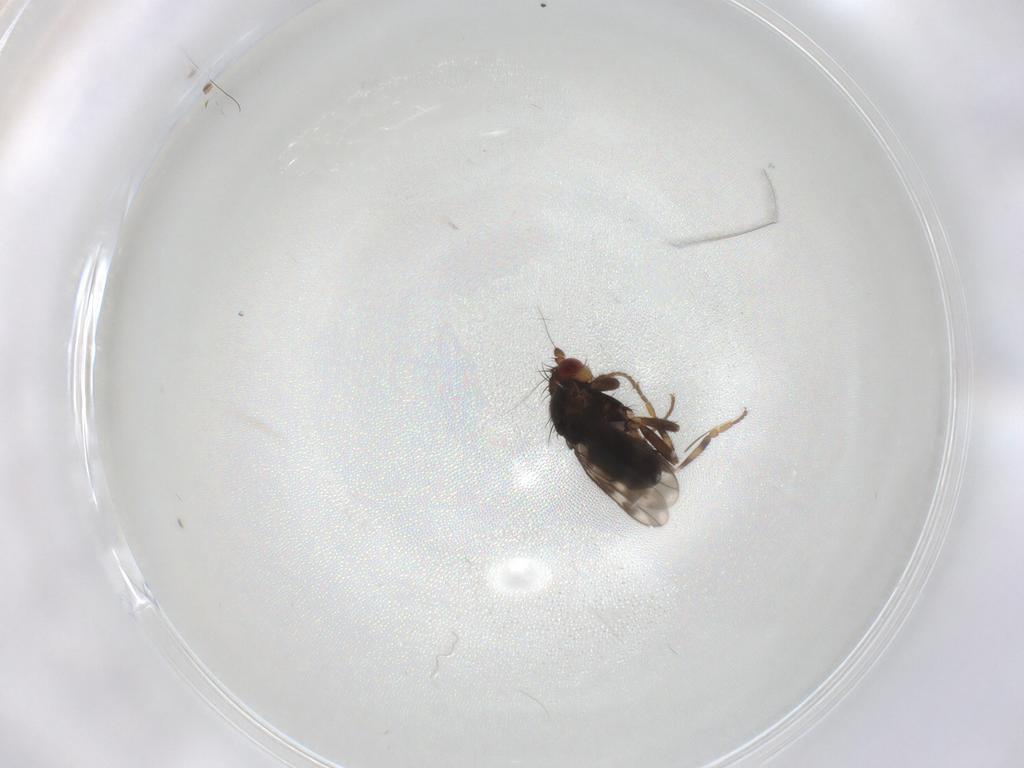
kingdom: Animalia
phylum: Arthropoda
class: Insecta
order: Diptera
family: Sphaeroceridae
